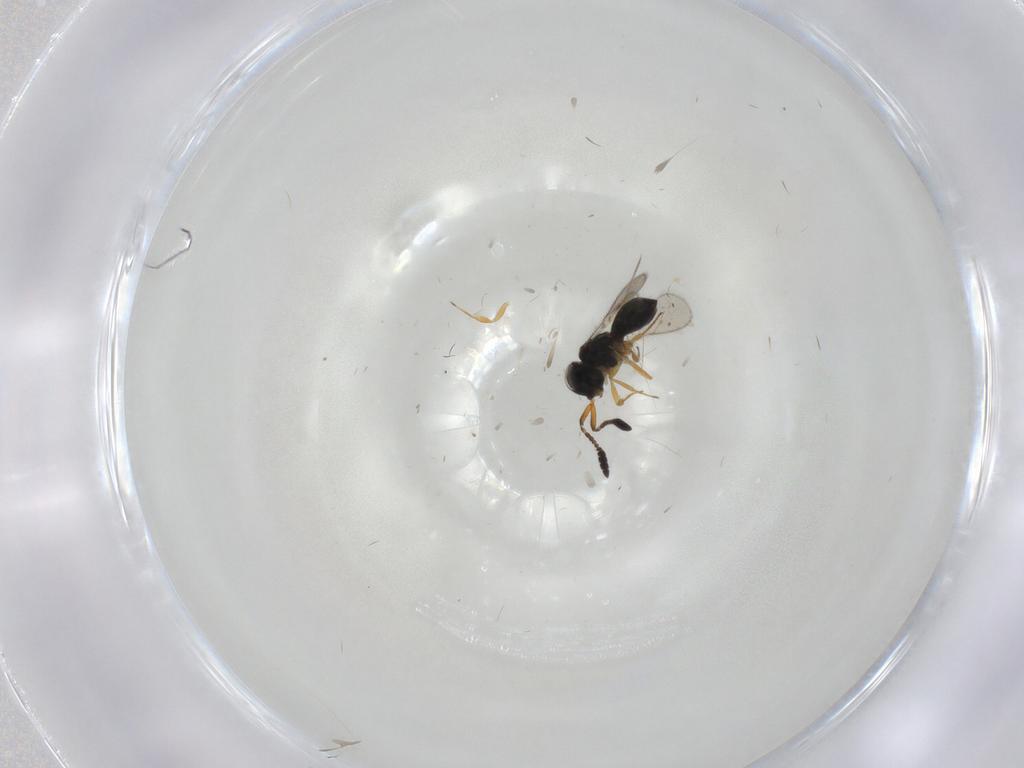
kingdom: Animalia
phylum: Arthropoda
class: Insecta
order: Hymenoptera
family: Scelionidae
